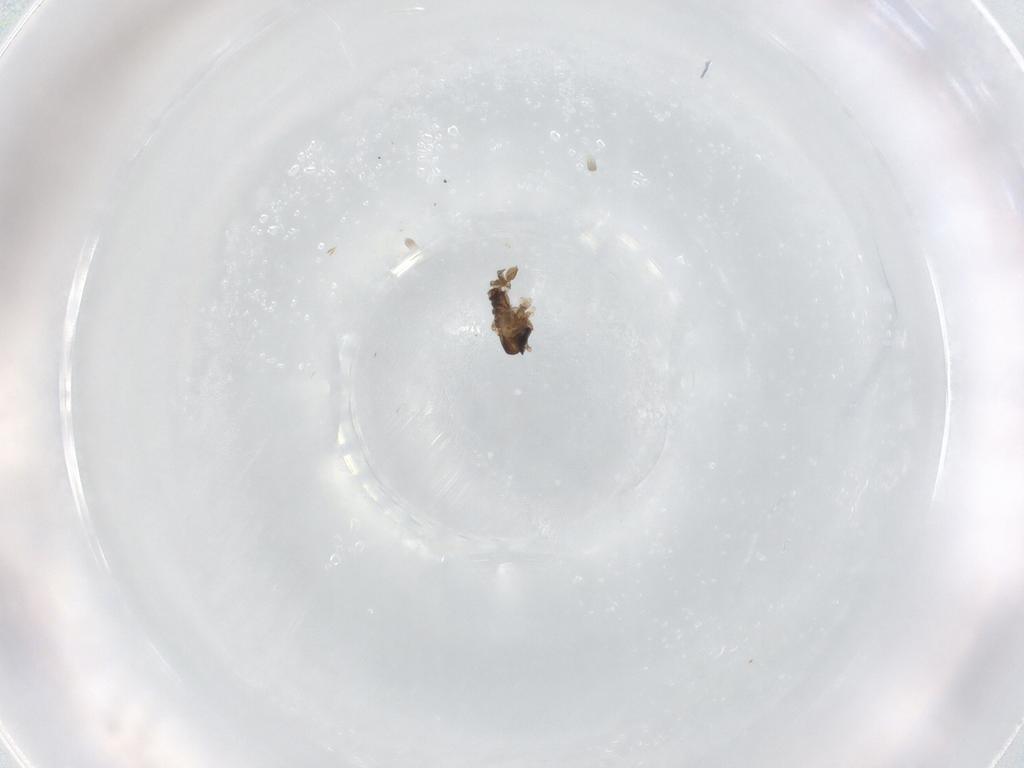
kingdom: Animalia
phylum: Arthropoda
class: Insecta
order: Diptera
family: Psychodidae
